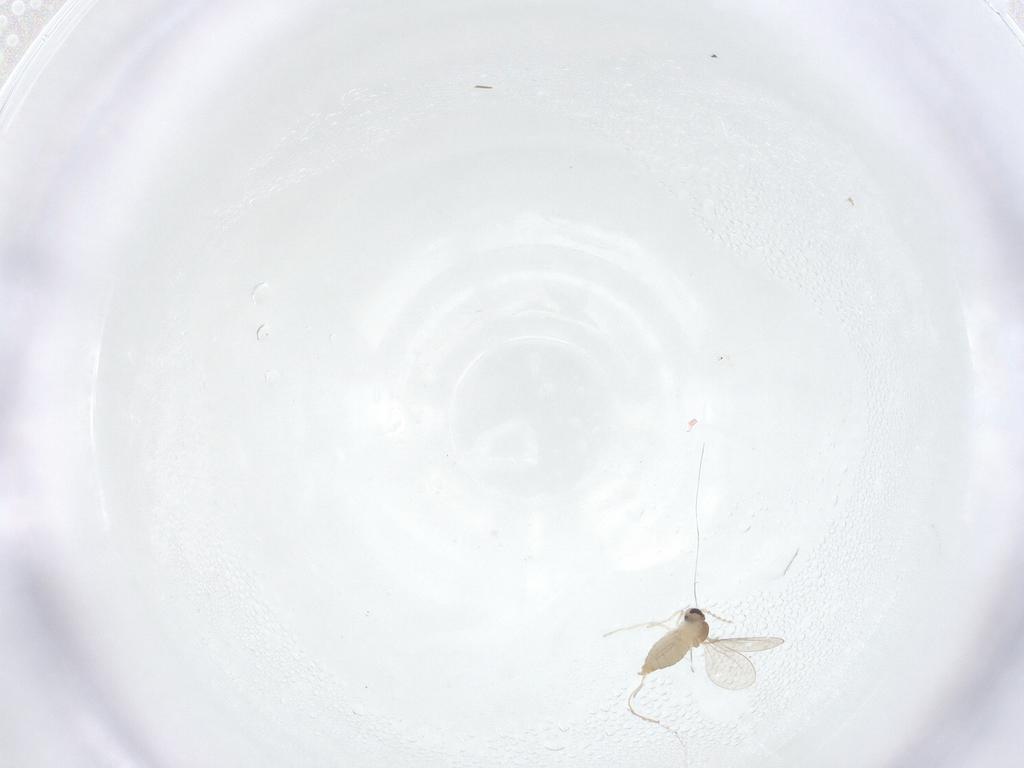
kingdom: Animalia
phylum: Arthropoda
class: Insecta
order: Diptera
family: Cecidomyiidae
